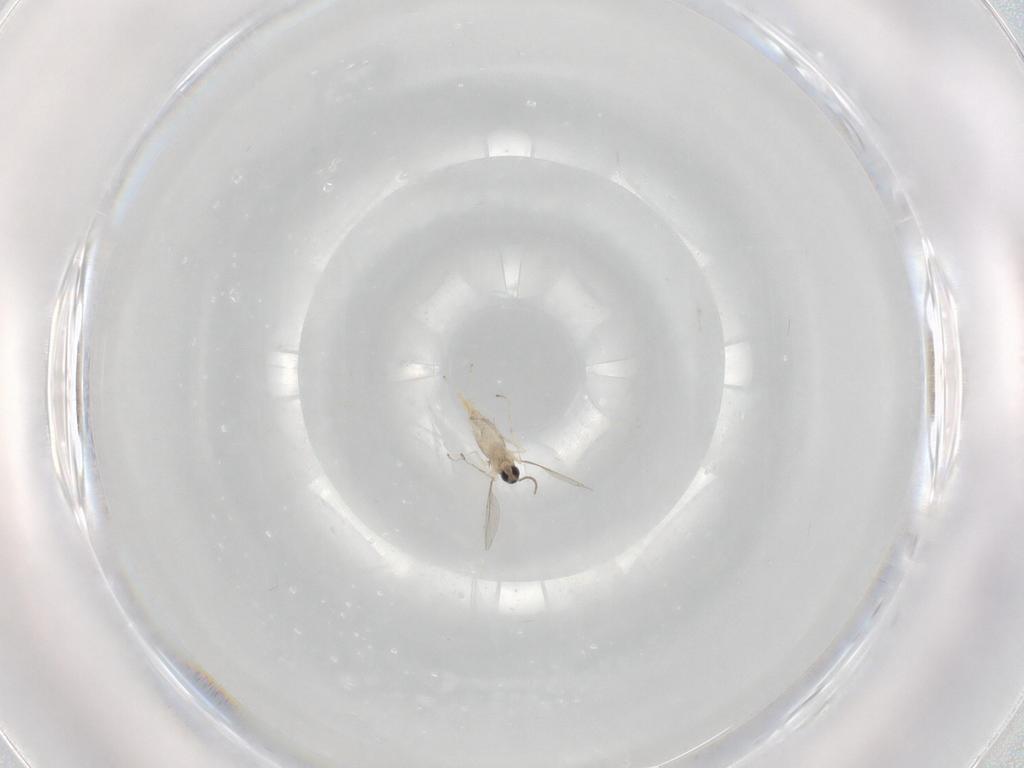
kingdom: Animalia
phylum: Arthropoda
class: Insecta
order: Diptera
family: Cecidomyiidae
